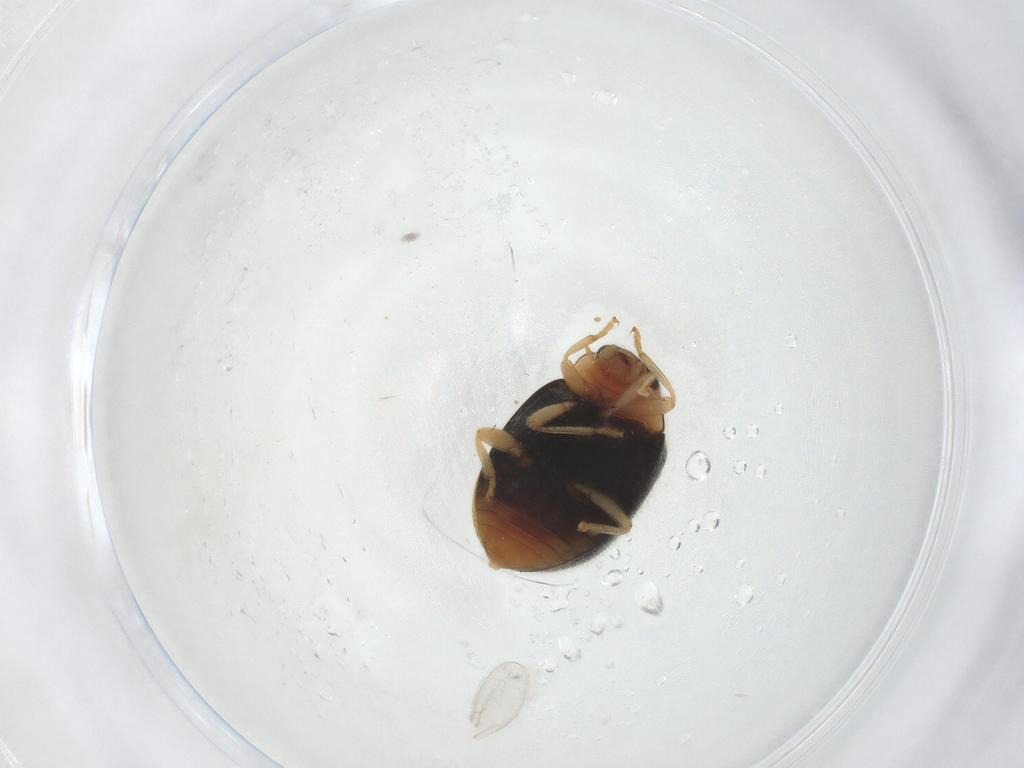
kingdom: Animalia
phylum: Arthropoda
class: Insecta
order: Coleoptera
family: Coccinellidae
